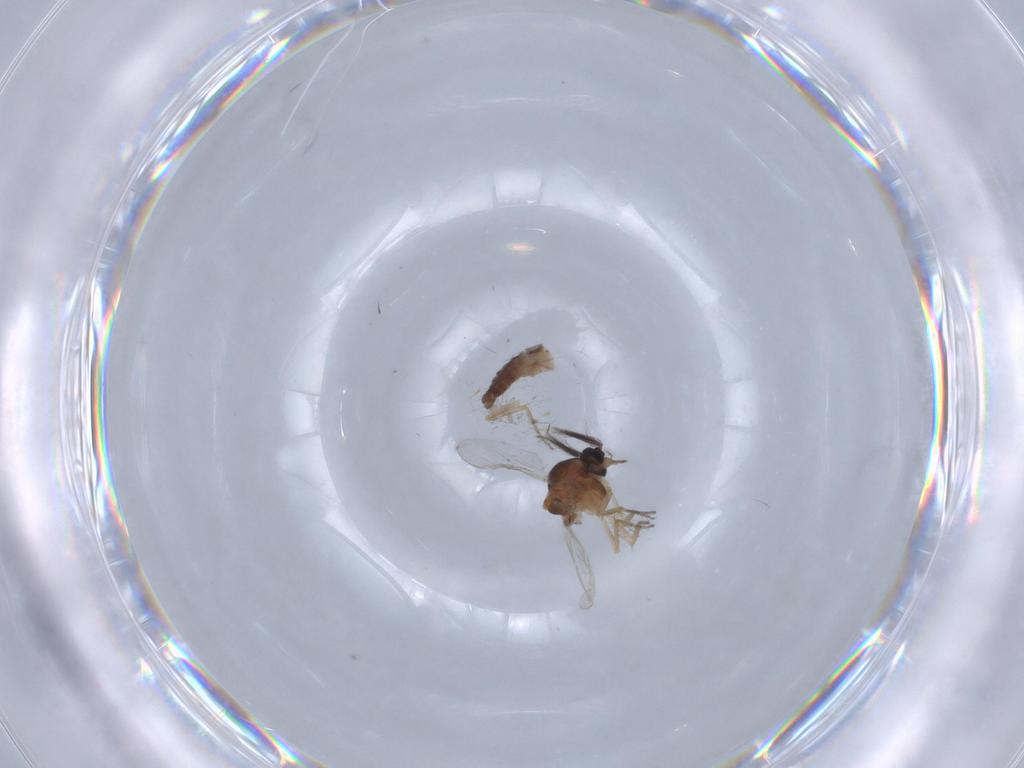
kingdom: Animalia
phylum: Arthropoda
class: Insecta
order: Diptera
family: Ceratopogonidae
